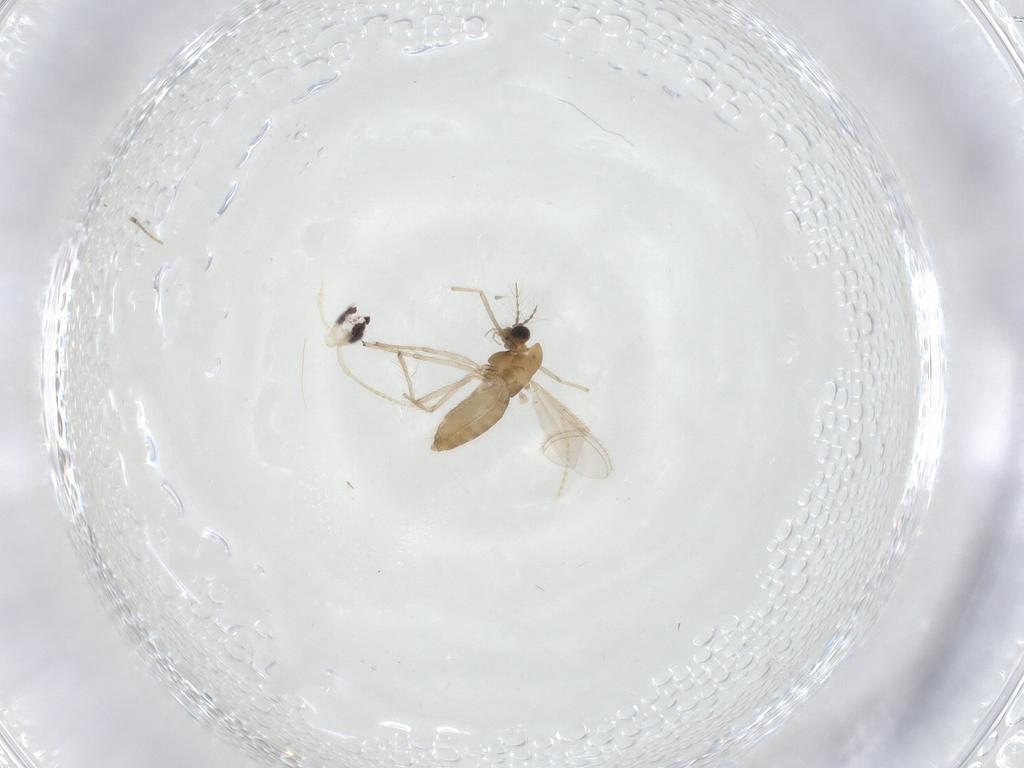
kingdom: Animalia
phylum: Arthropoda
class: Insecta
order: Lepidoptera
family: Lyonetiidae
